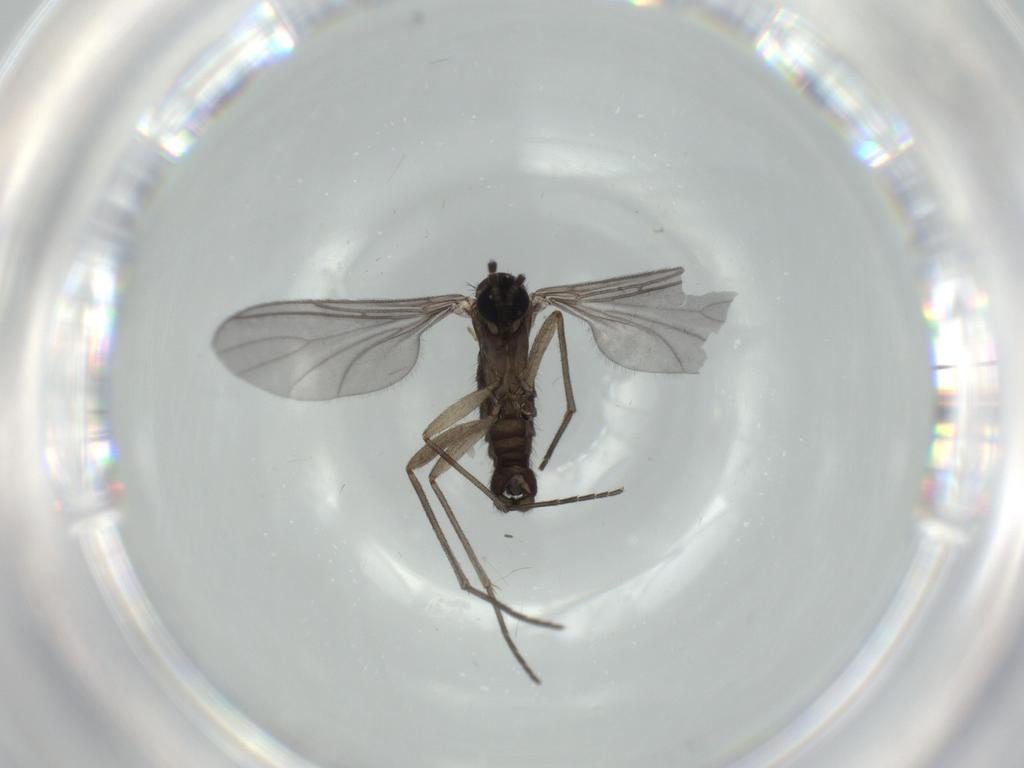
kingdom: Animalia
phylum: Arthropoda
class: Insecta
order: Diptera
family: Sciaridae
